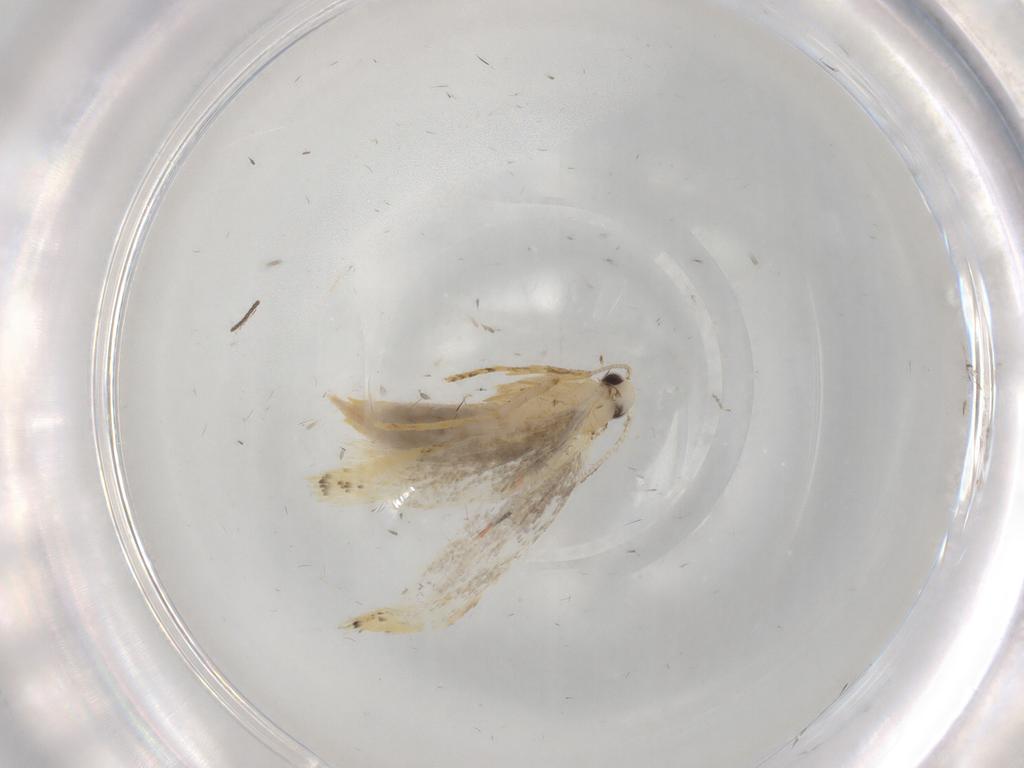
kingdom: Animalia
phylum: Arthropoda
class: Insecta
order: Lepidoptera
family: Tineidae
